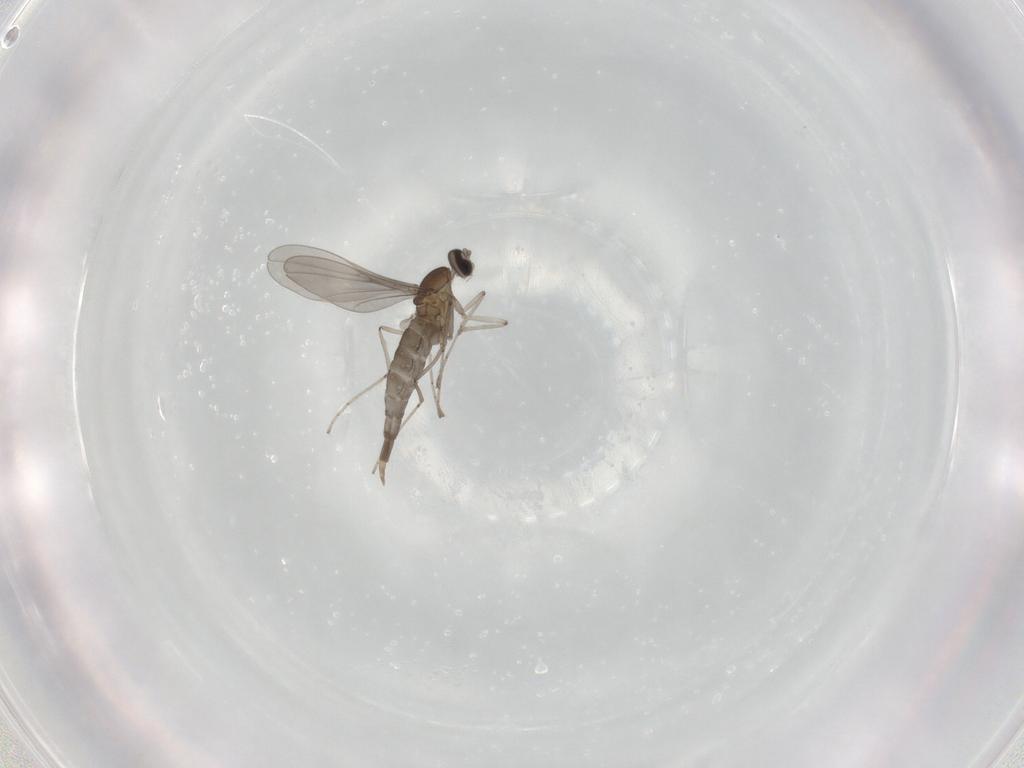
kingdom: Animalia
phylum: Arthropoda
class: Insecta
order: Diptera
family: Cecidomyiidae
